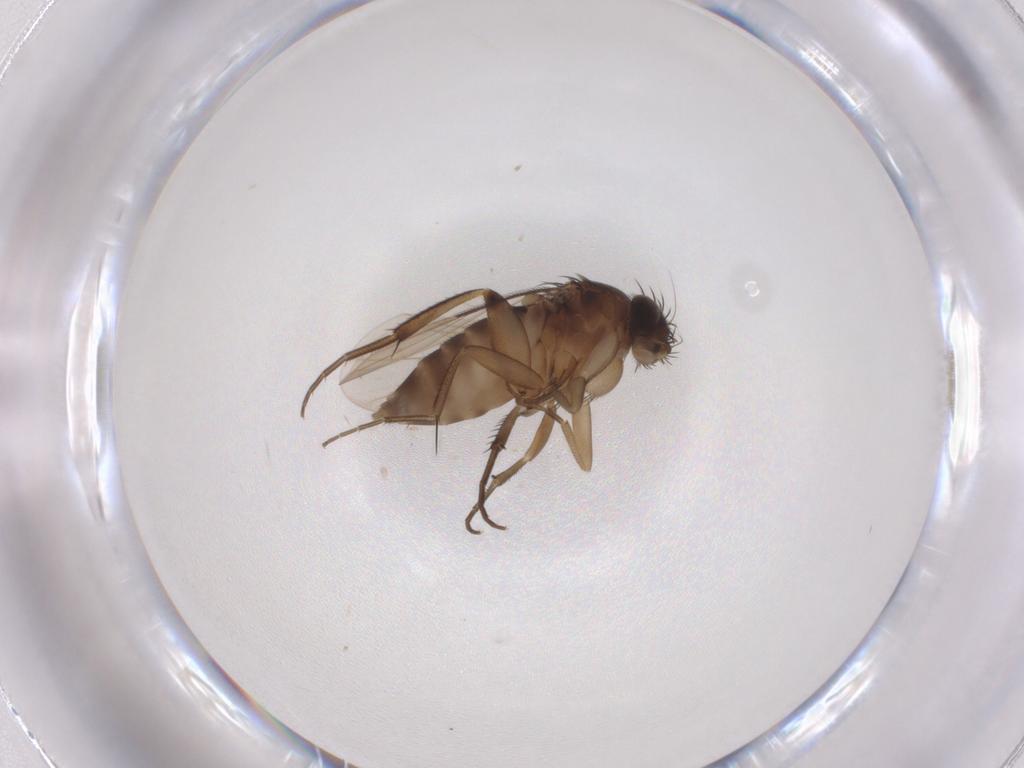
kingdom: Animalia
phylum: Arthropoda
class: Insecta
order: Diptera
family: Phoridae
